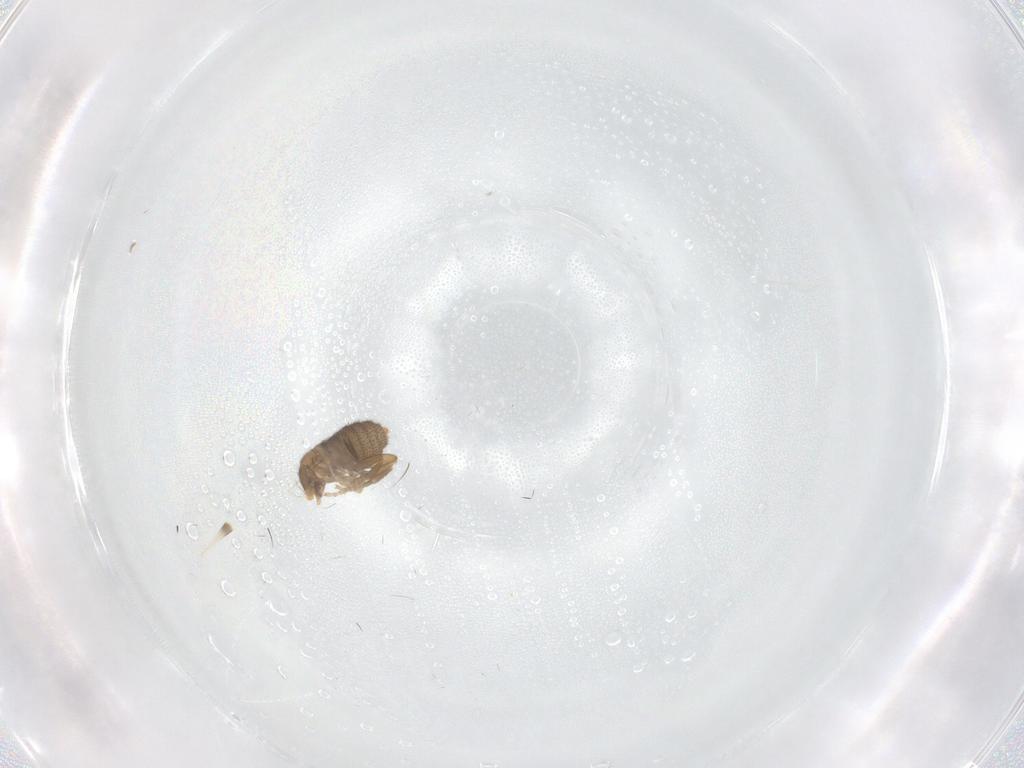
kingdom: Animalia
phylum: Arthropoda
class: Insecta
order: Diptera
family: Phoridae
